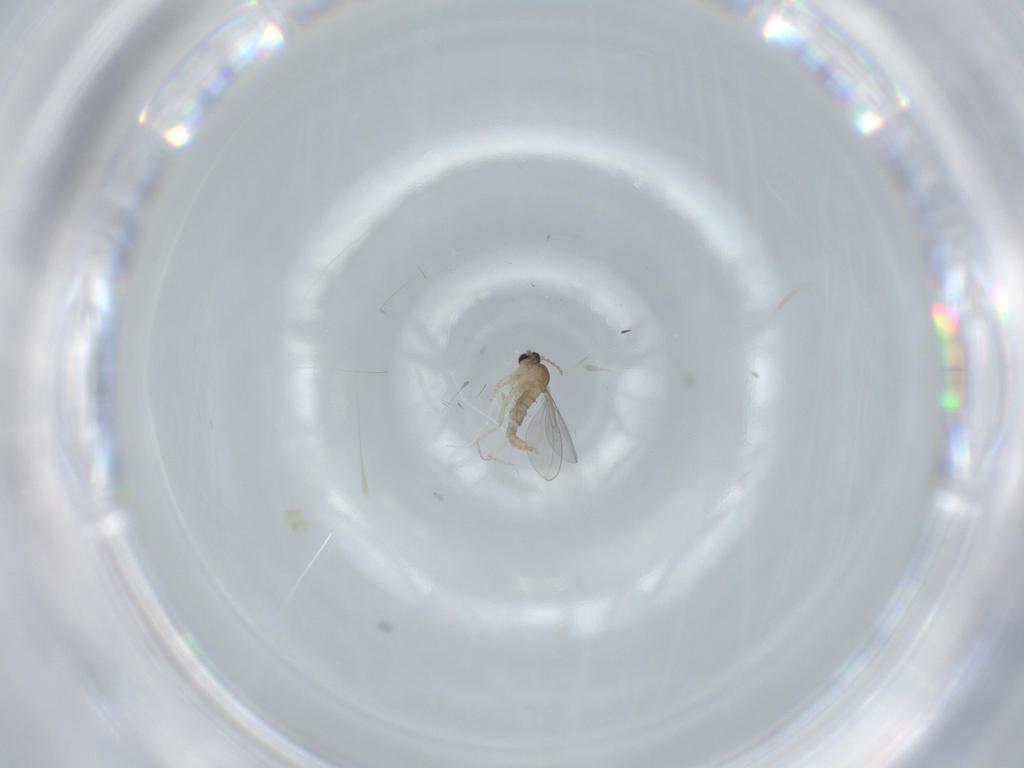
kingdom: Animalia
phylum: Arthropoda
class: Insecta
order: Diptera
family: Cecidomyiidae
